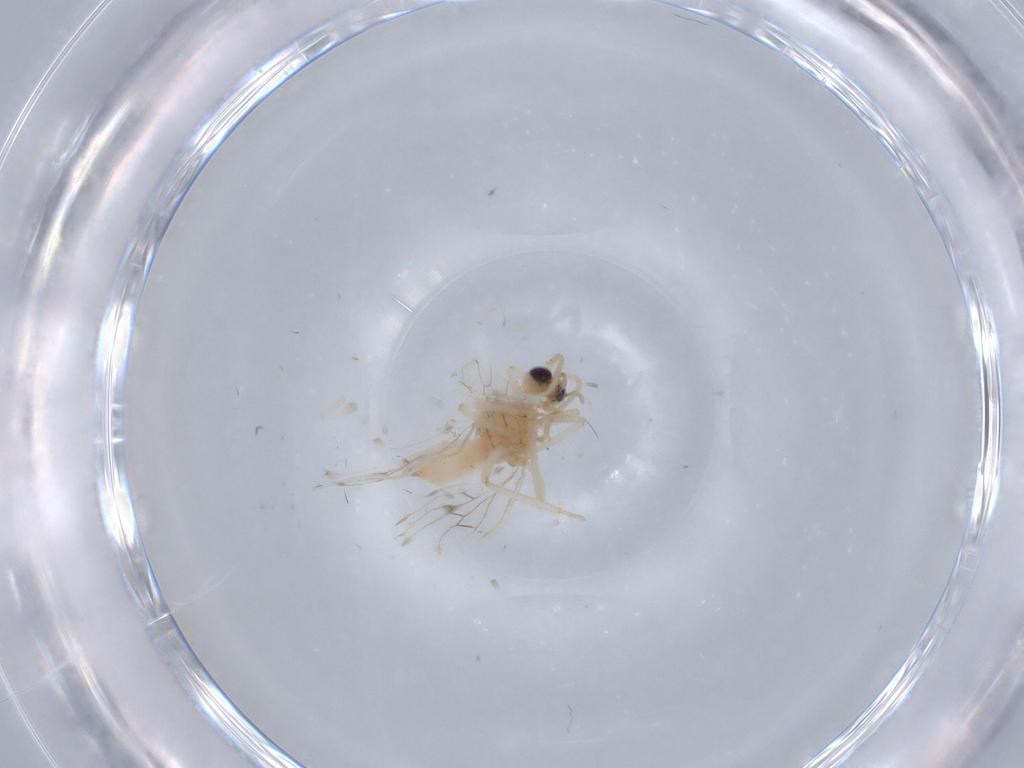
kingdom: Animalia
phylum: Arthropoda
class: Insecta
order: Neuroptera
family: Coniopterygidae
